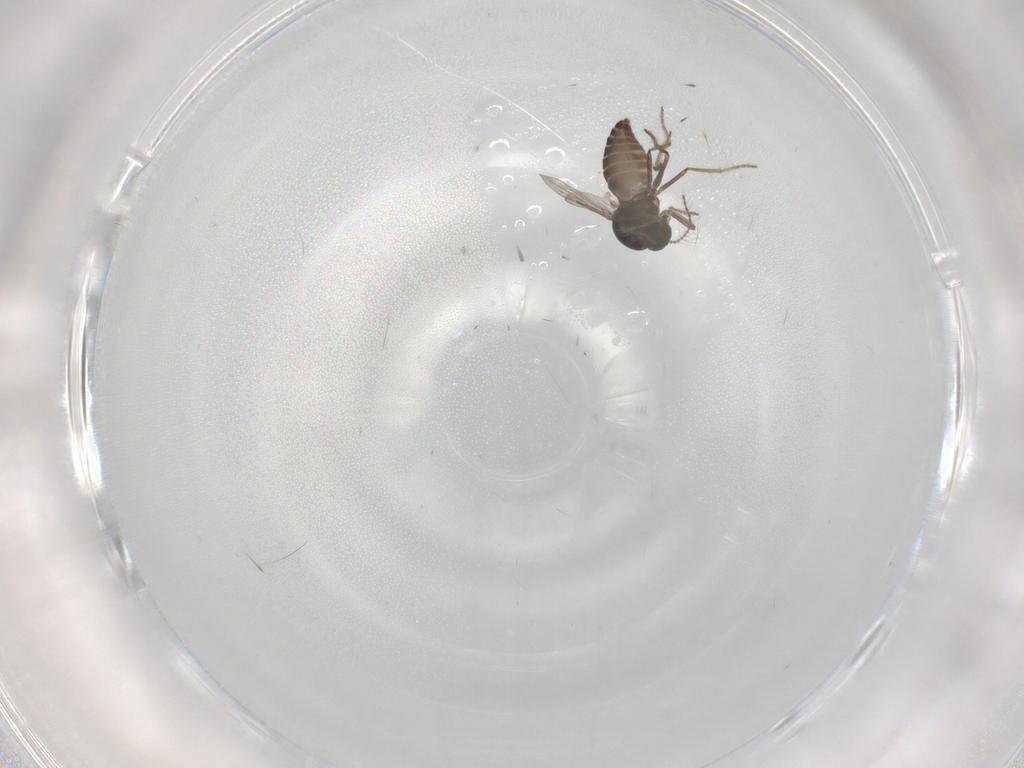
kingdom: Animalia
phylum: Arthropoda
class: Insecta
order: Diptera
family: Ceratopogonidae
